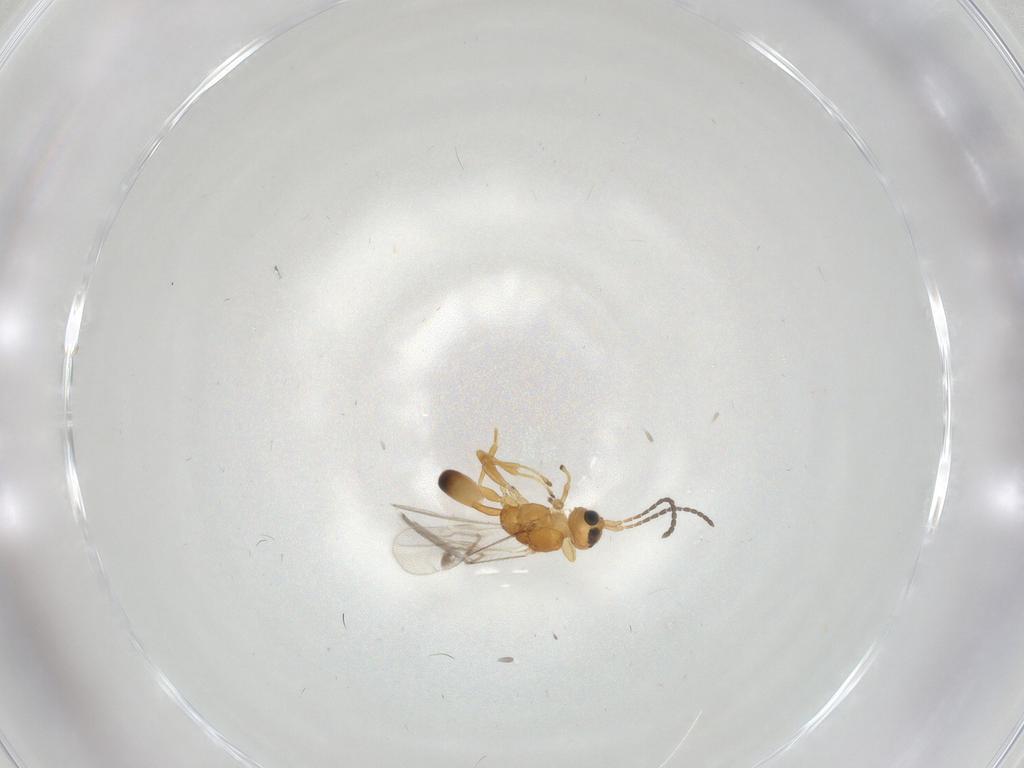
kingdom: Animalia
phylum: Arthropoda
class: Insecta
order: Hymenoptera
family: Braconidae
